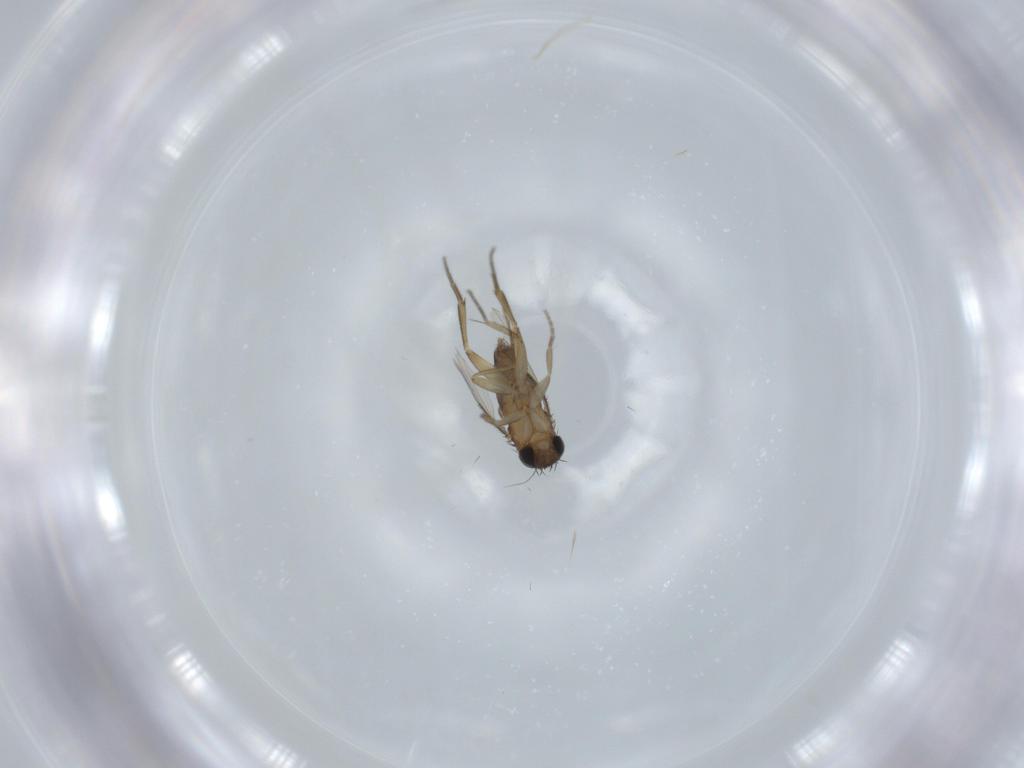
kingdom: Animalia
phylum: Arthropoda
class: Insecta
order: Diptera
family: Phoridae
